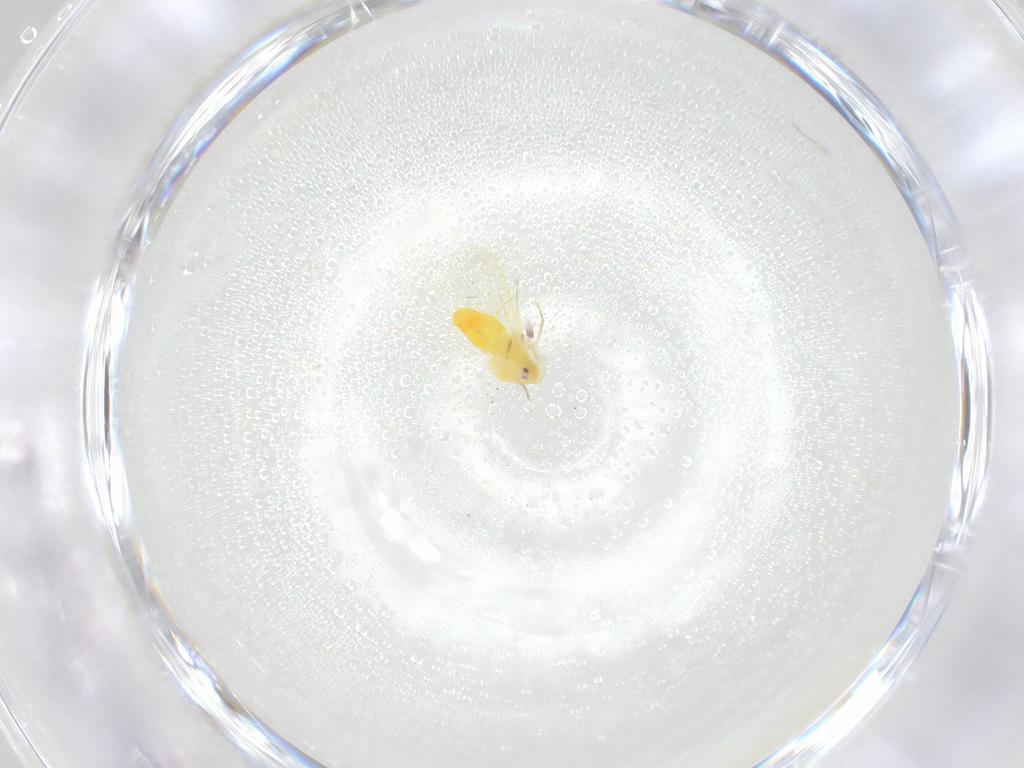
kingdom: Animalia
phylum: Arthropoda
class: Insecta
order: Hemiptera
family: Aleyrodidae
